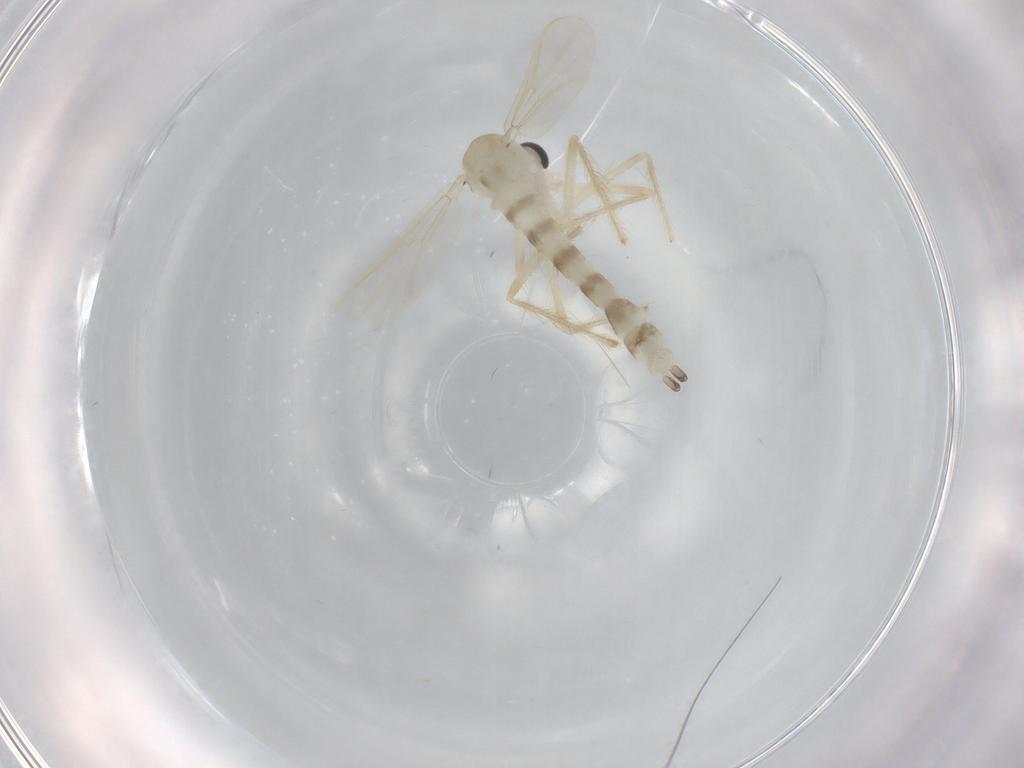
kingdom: Animalia
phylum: Arthropoda
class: Insecta
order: Diptera
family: Chironomidae
